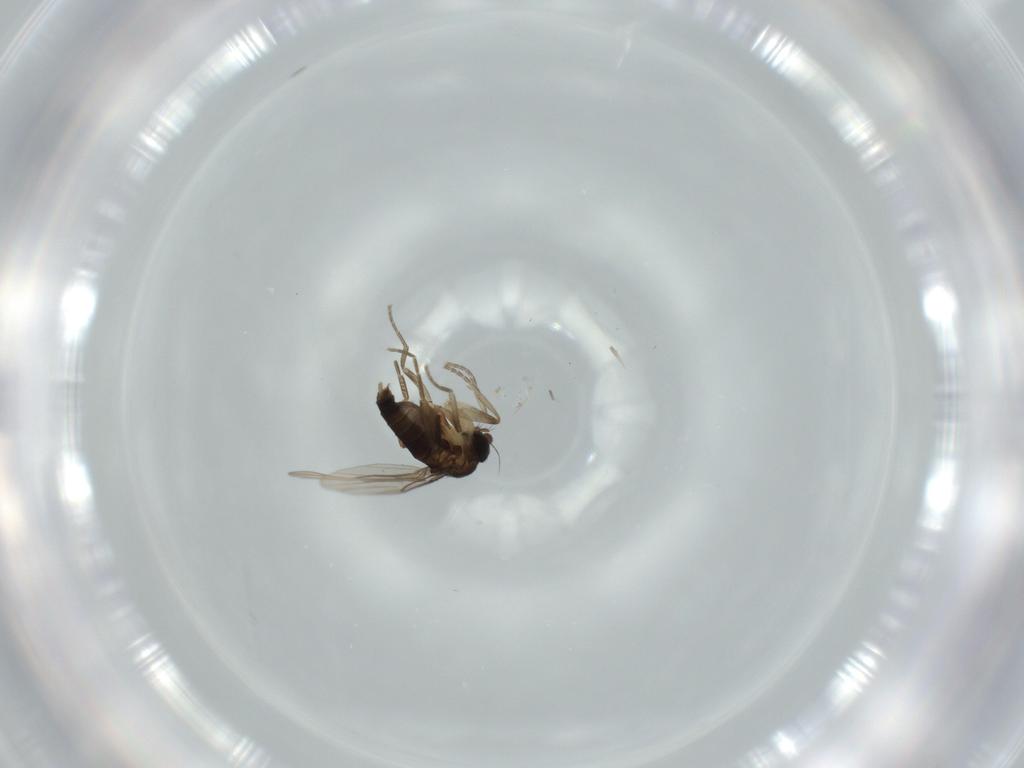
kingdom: Animalia
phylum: Arthropoda
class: Insecta
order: Diptera
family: Phoridae
